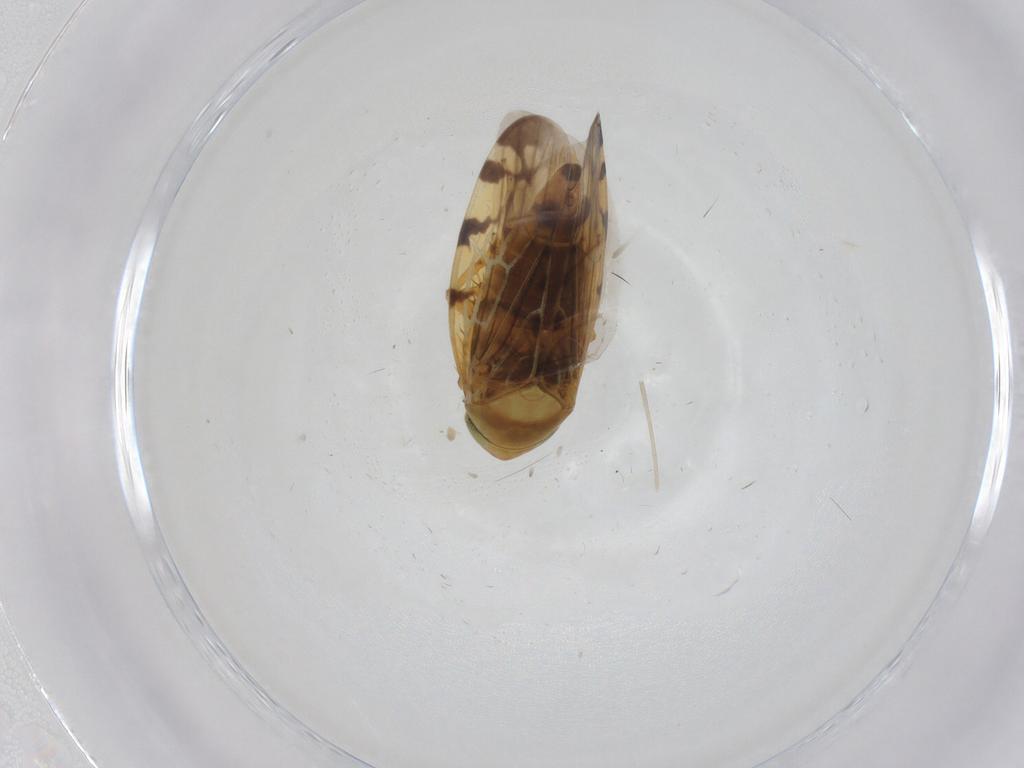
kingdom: Animalia
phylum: Arthropoda
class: Insecta
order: Hemiptera
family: Cicadellidae
